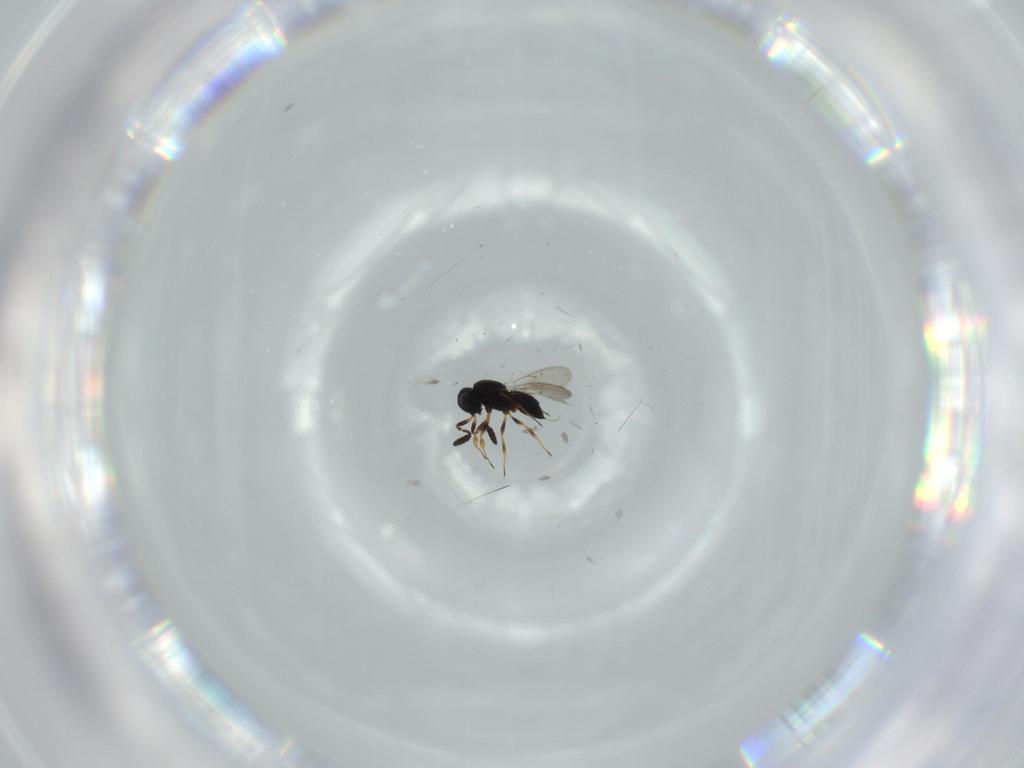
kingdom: Animalia
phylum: Arthropoda
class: Insecta
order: Hymenoptera
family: Scelionidae
